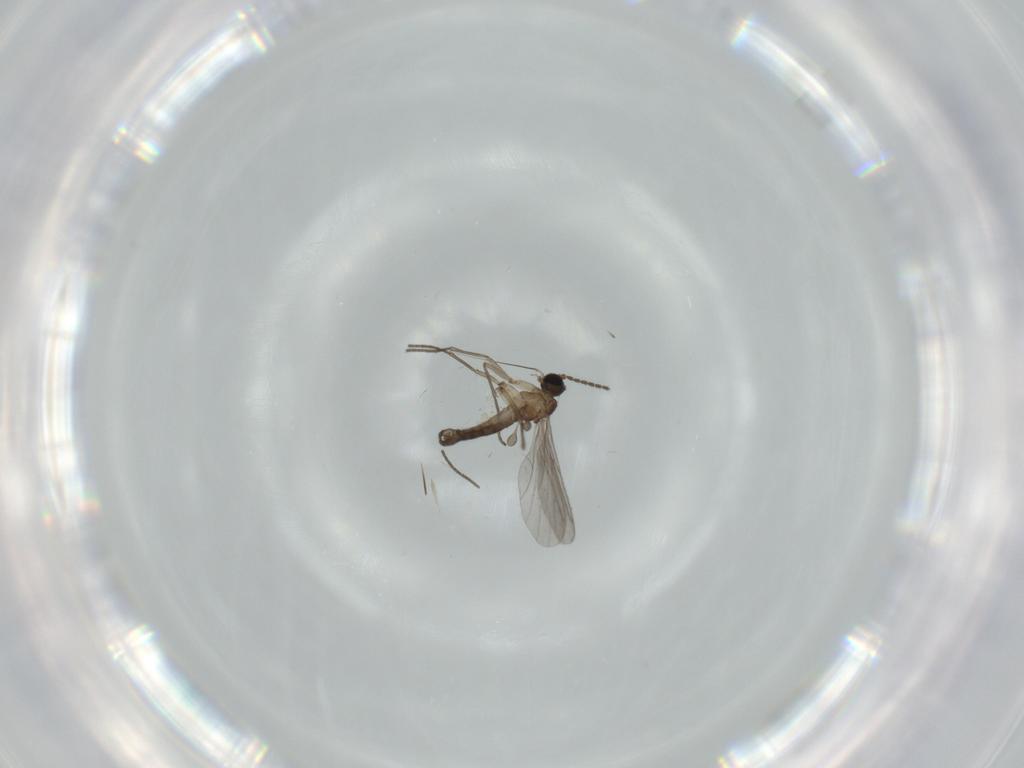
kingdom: Animalia
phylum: Arthropoda
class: Insecta
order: Diptera
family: Sciaridae
